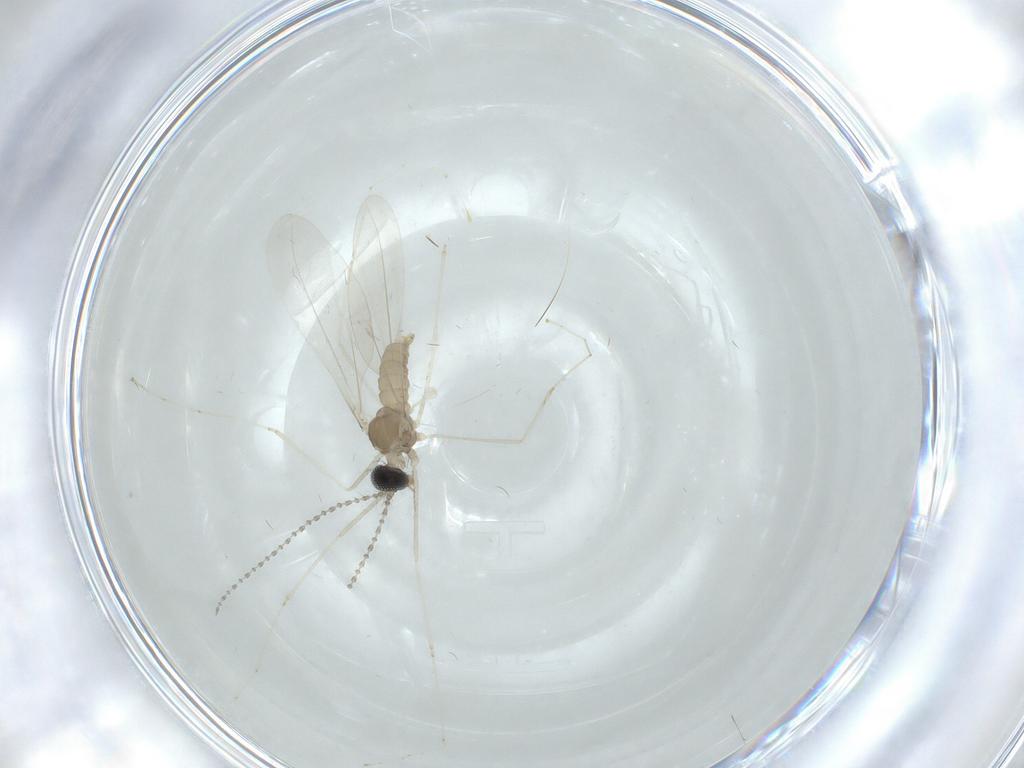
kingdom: Animalia
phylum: Arthropoda
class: Insecta
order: Diptera
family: Cecidomyiidae
